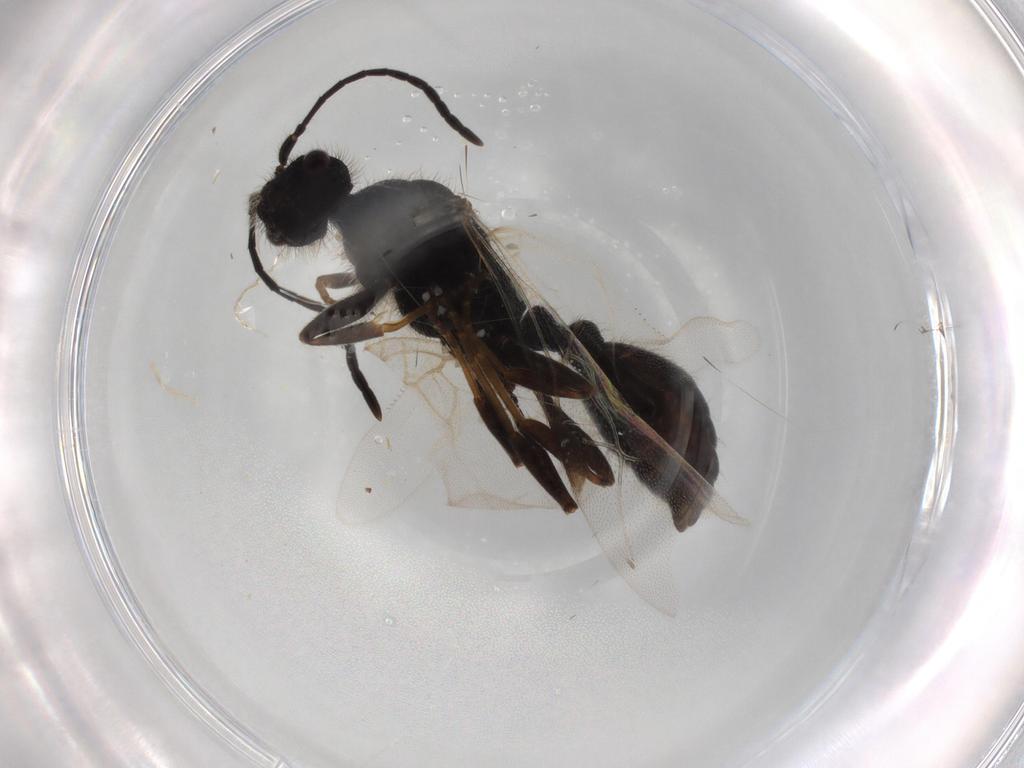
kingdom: Animalia
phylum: Arthropoda
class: Insecta
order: Hymenoptera
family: Formicidae
